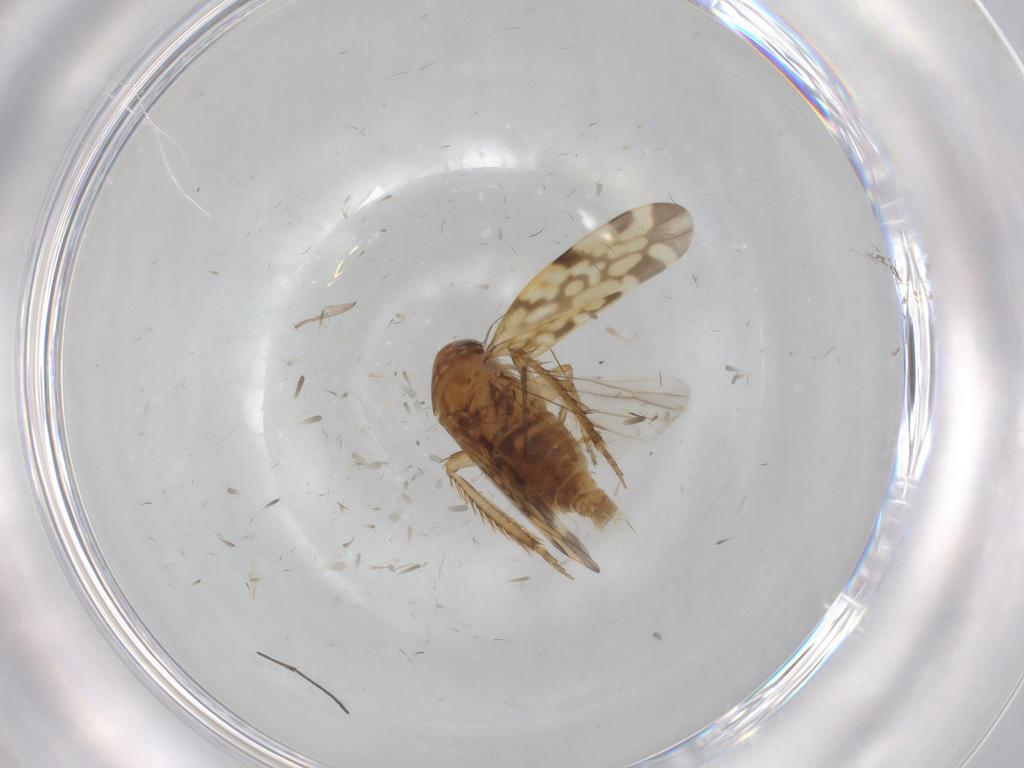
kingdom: Animalia
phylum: Arthropoda
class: Insecta
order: Hemiptera
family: Cicadellidae
